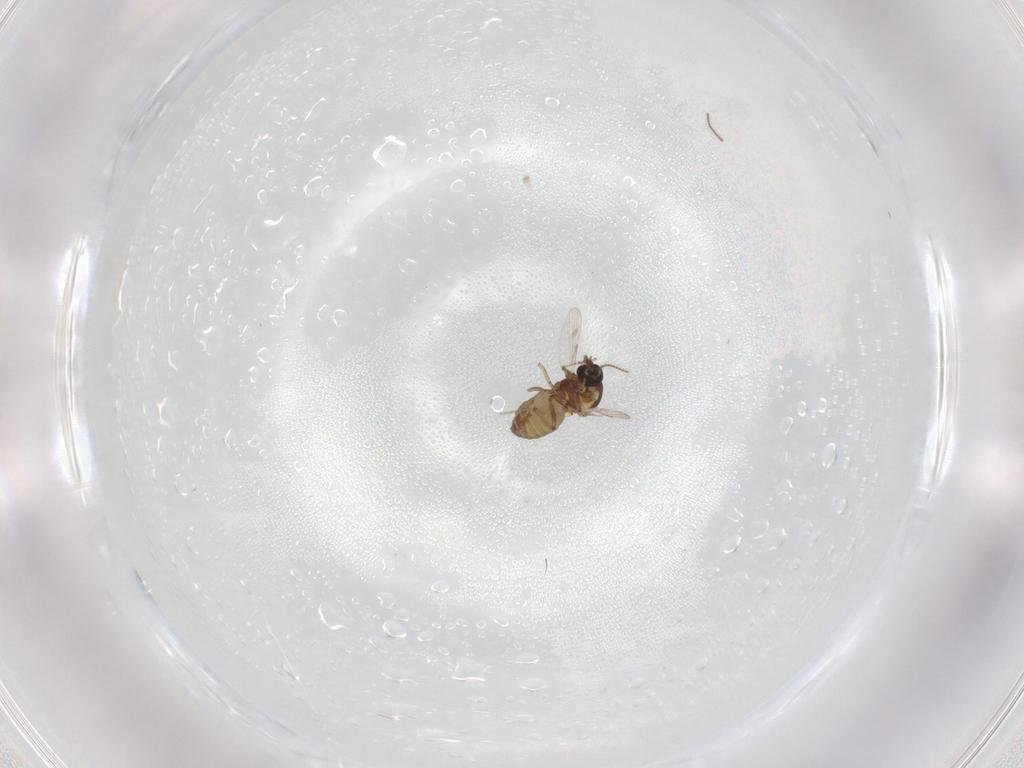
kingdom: Animalia
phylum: Arthropoda
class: Insecta
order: Diptera
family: Ceratopogonidae
